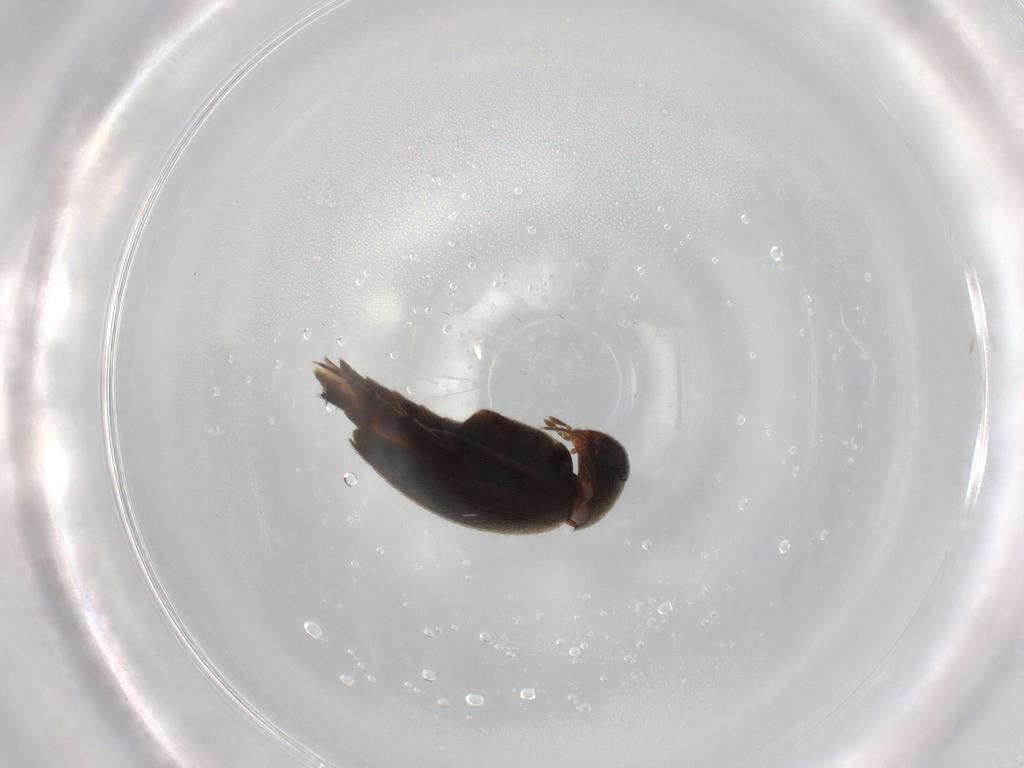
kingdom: Animalia
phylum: Arthropoda
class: Insecta
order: Coleoptera
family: Mordellidae
